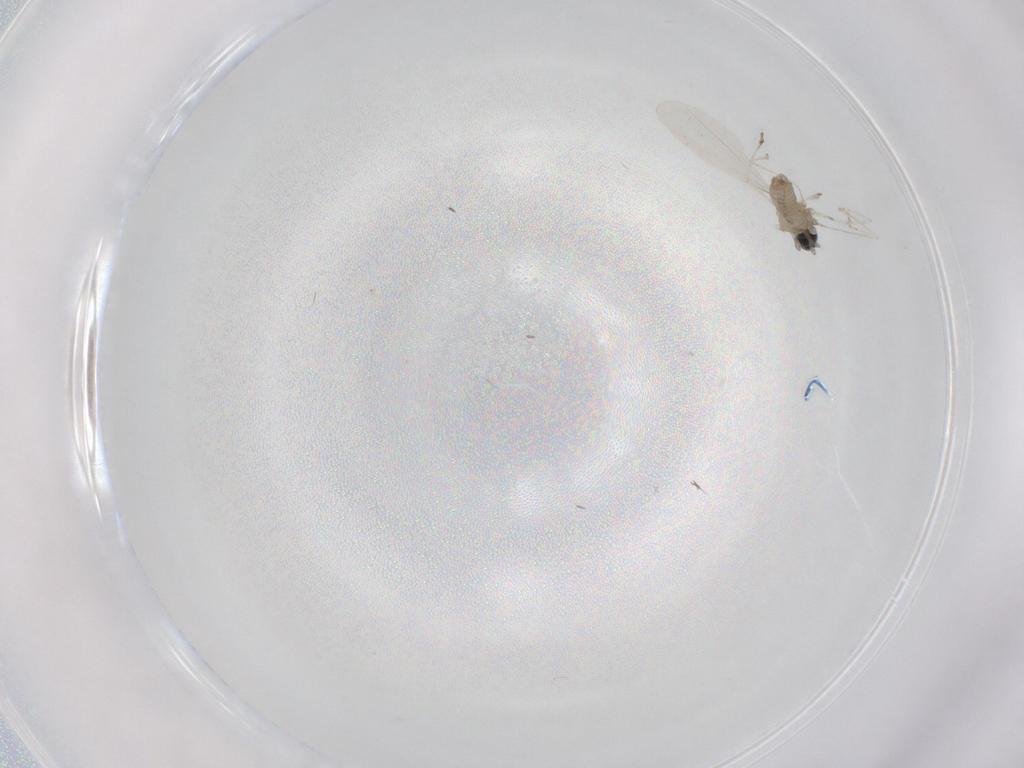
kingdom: Animalia
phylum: Arthropoda
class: Insecta
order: Diptera
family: Cecidomyiidae
